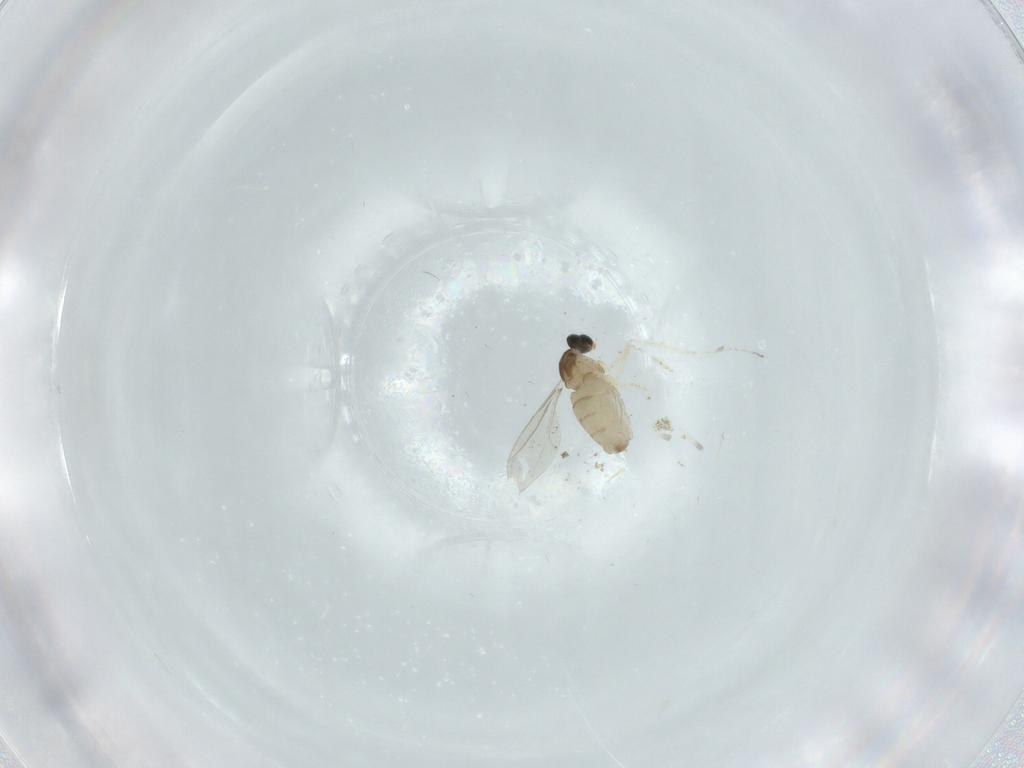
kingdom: Animalia
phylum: Arthropoda
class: Insecta
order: Diptera
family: Cecidomyiidae
